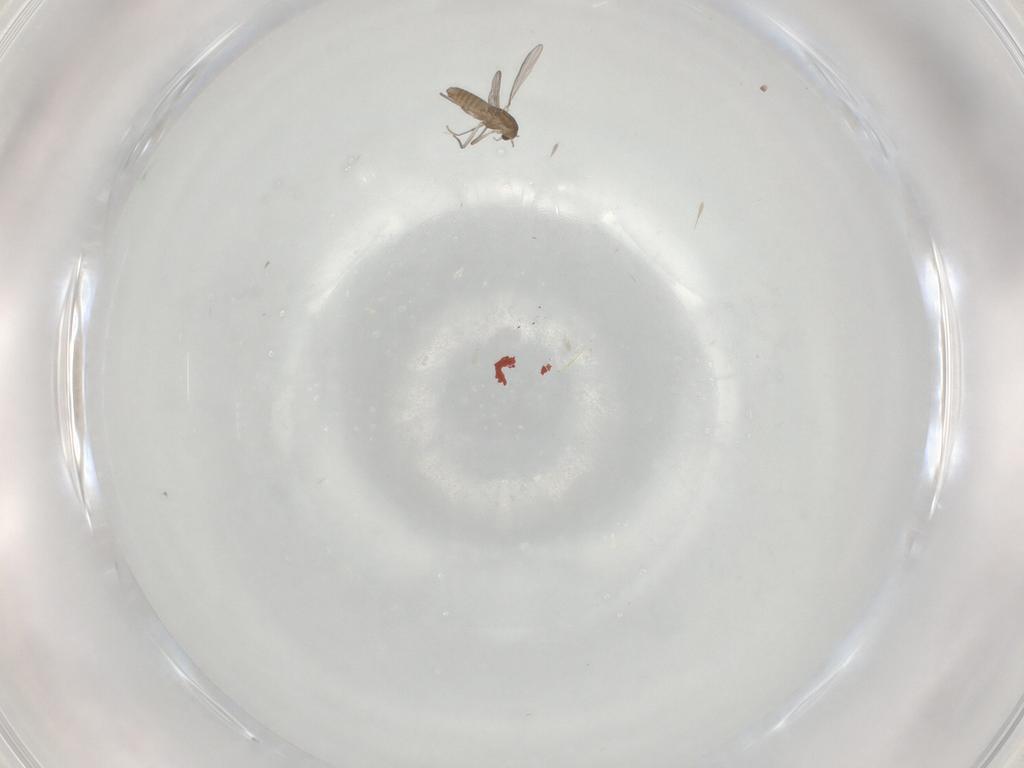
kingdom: Animalia
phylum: Arthropoda
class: Insecta
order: Diptera
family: Chironomidae
